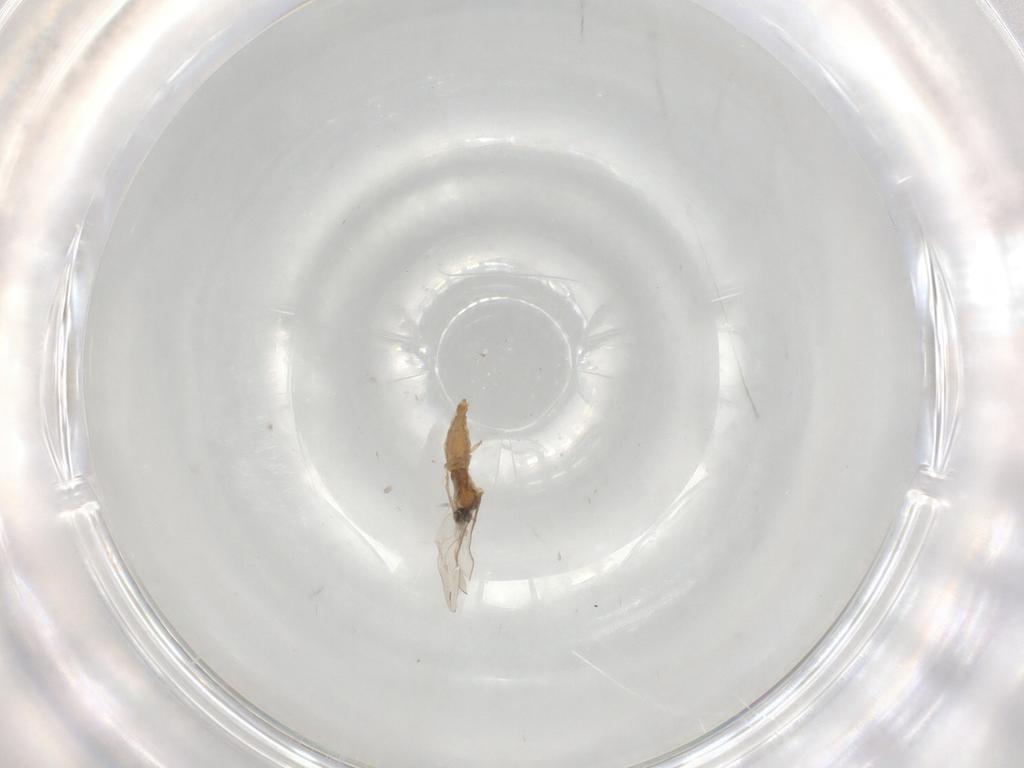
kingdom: Animalia
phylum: Arthropoda
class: Insecta
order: Diptera
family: Cecidomyiidae
